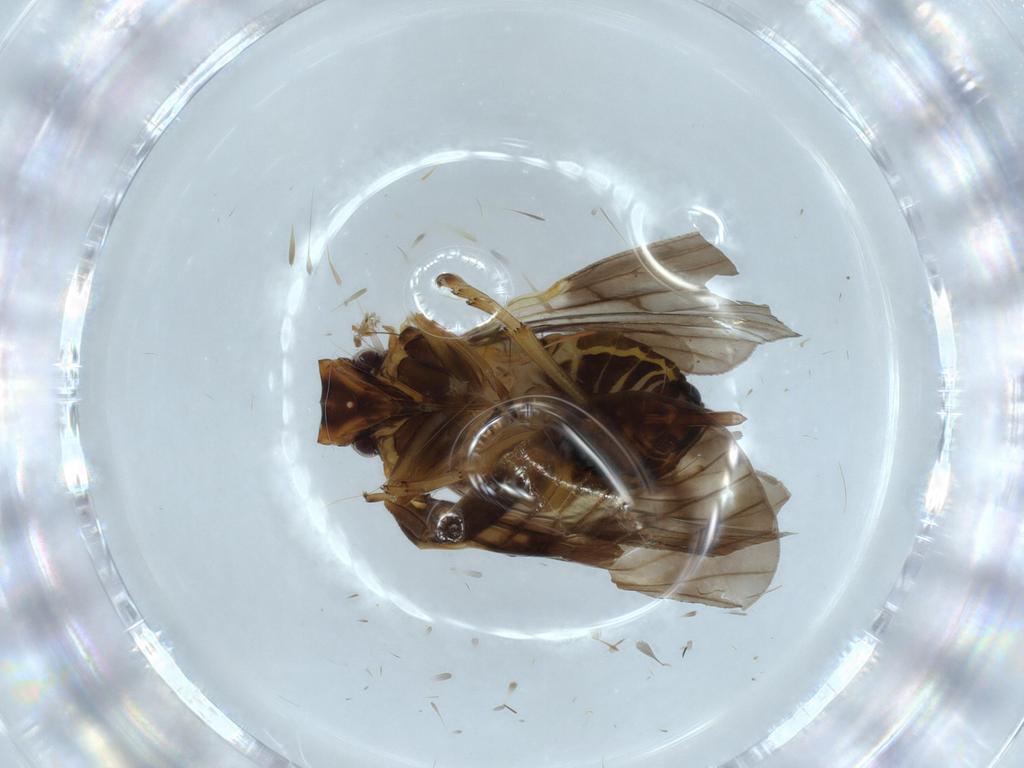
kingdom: Animalia
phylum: Arthropoda
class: Insecta
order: Hemiptera
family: Cixiidae
